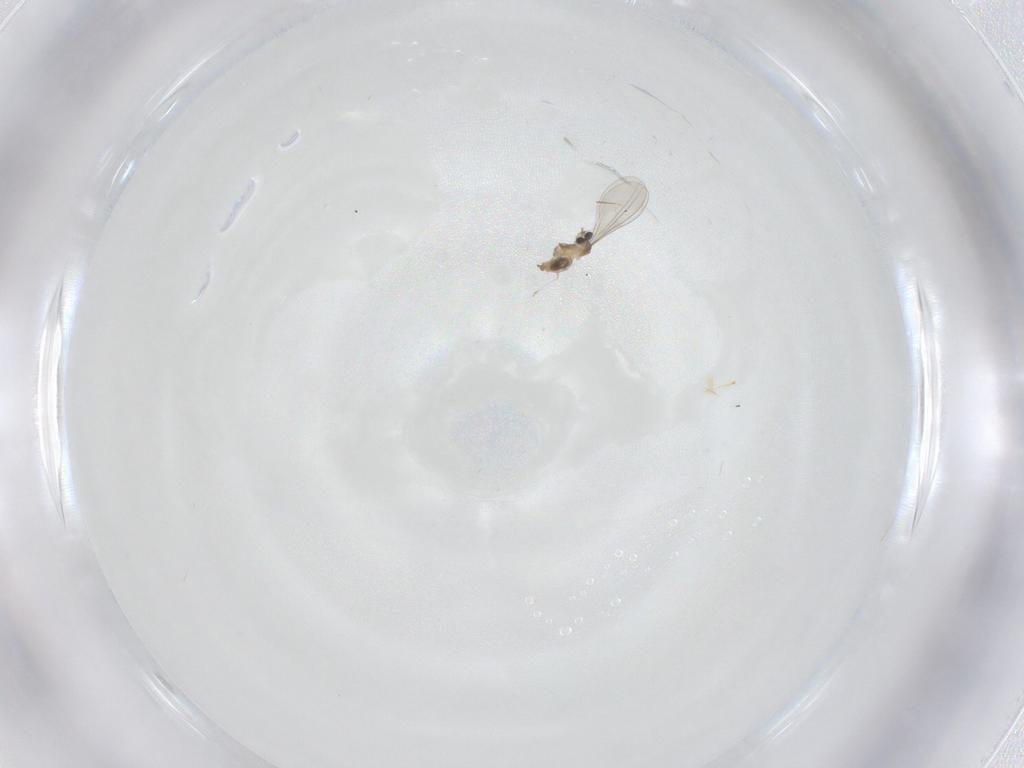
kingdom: Animalia
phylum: Arthropoda
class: Insecta
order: Diptera
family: Cecidomyiidae
